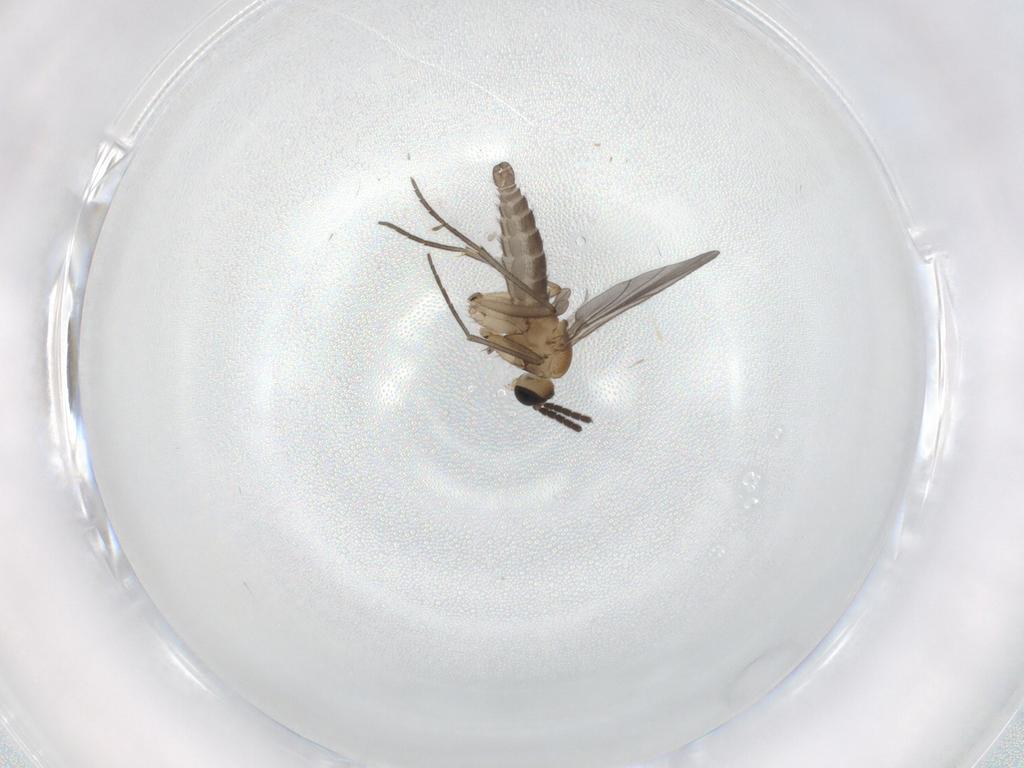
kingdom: Animalia
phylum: Arthropoda
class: Insecta
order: Diptera
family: Sciaridae
